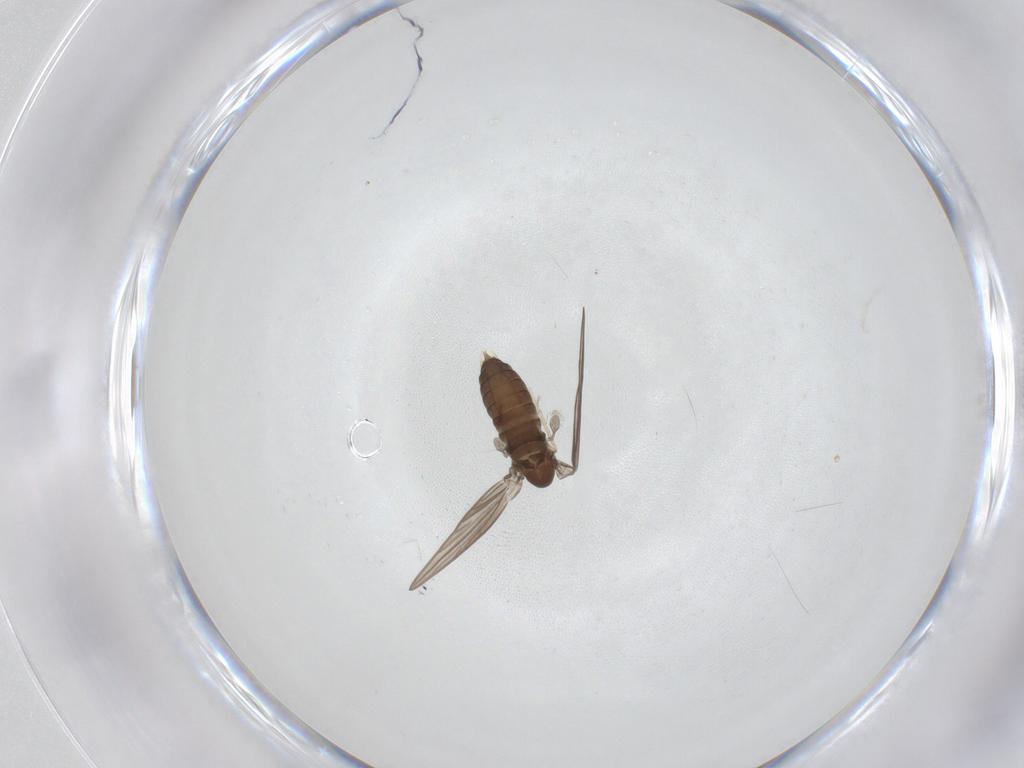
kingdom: Animalia
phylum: Arthropoda
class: Insecta
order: Diptera
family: Psychodidae
